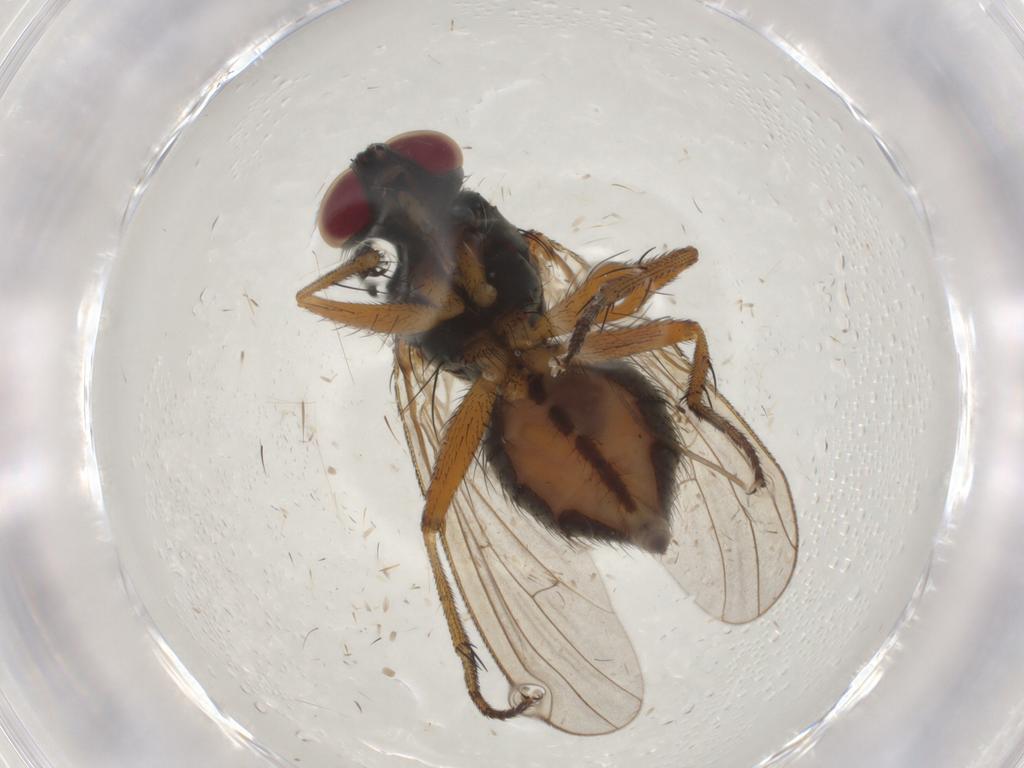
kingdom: Animalia
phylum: Arthropoda
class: Insecta
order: Diptera
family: Muscidae
